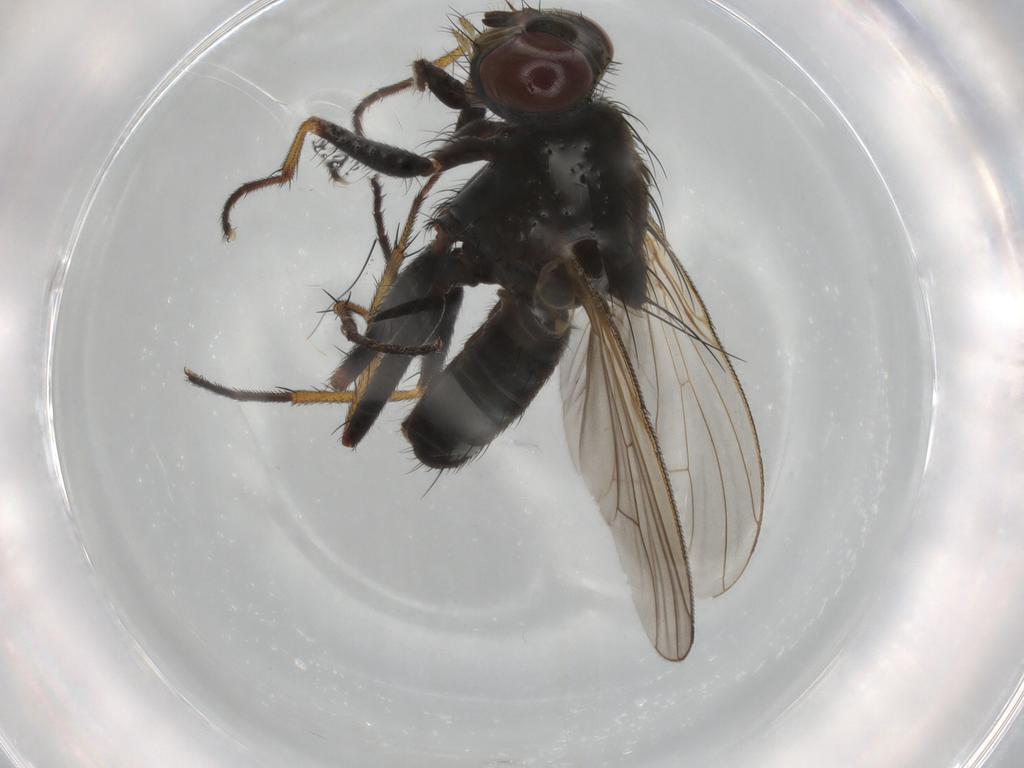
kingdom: Animalia
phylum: Arthropoda
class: Insecta
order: Diptera
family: Muscidae
